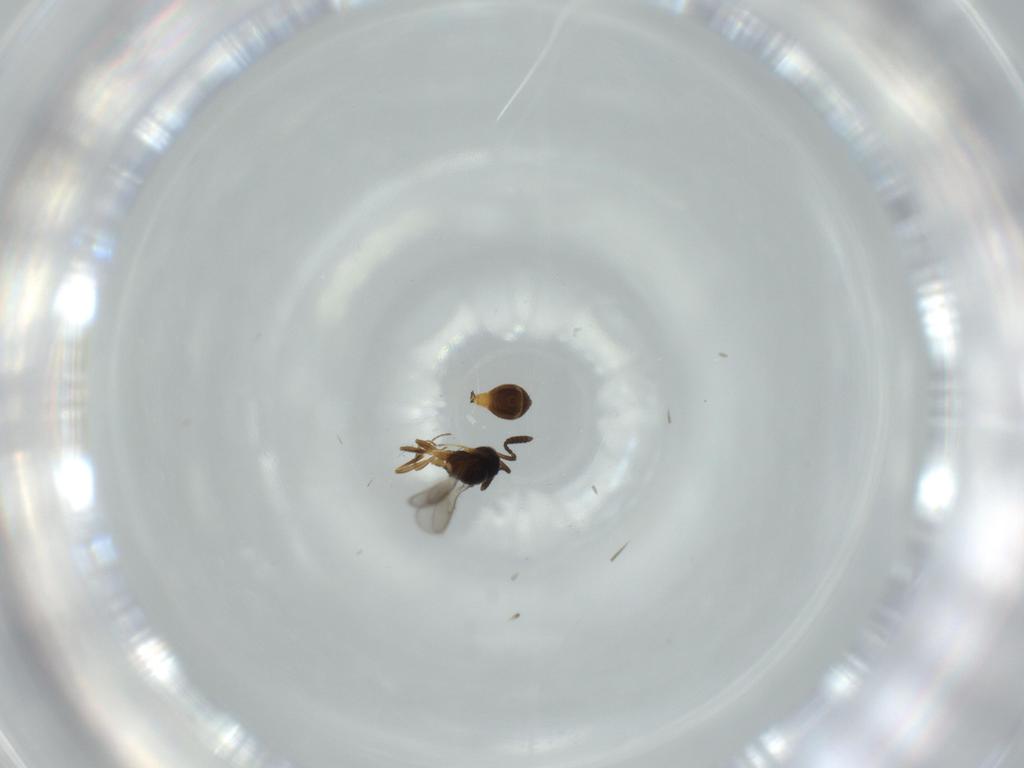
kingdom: Animalia
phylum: Arthropoda
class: Insecta
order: Hymenoptera
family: Scelionidae
